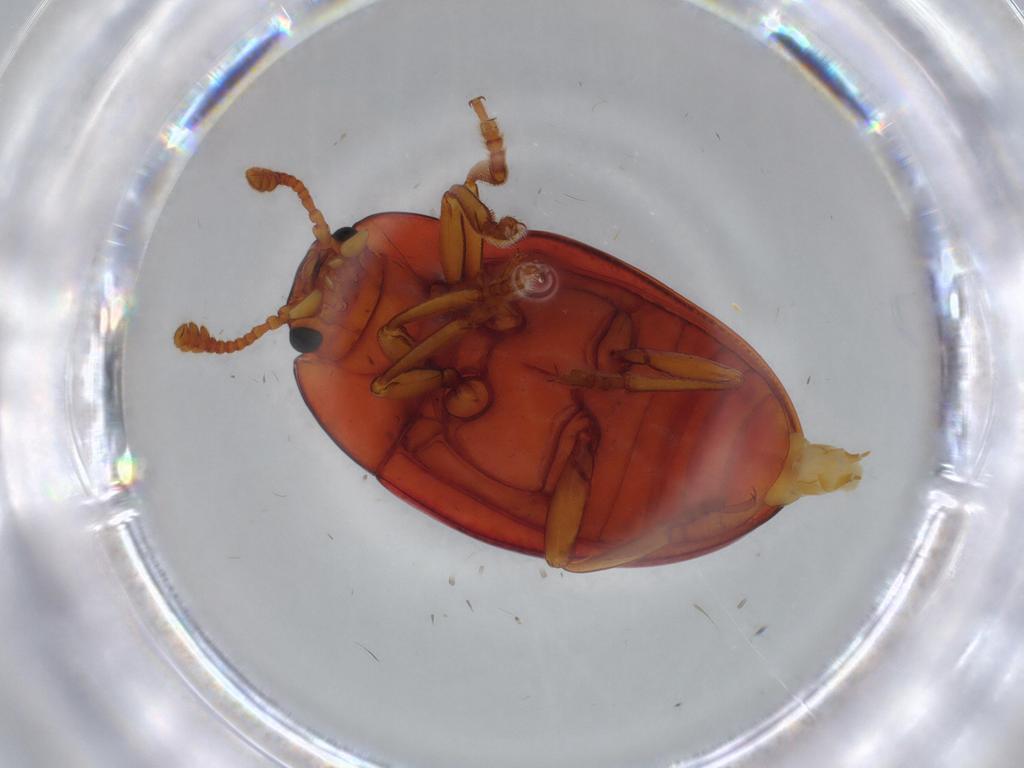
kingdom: Animalia
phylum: Arthropoda
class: Insecta
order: Coleoptera
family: Erotylidae
